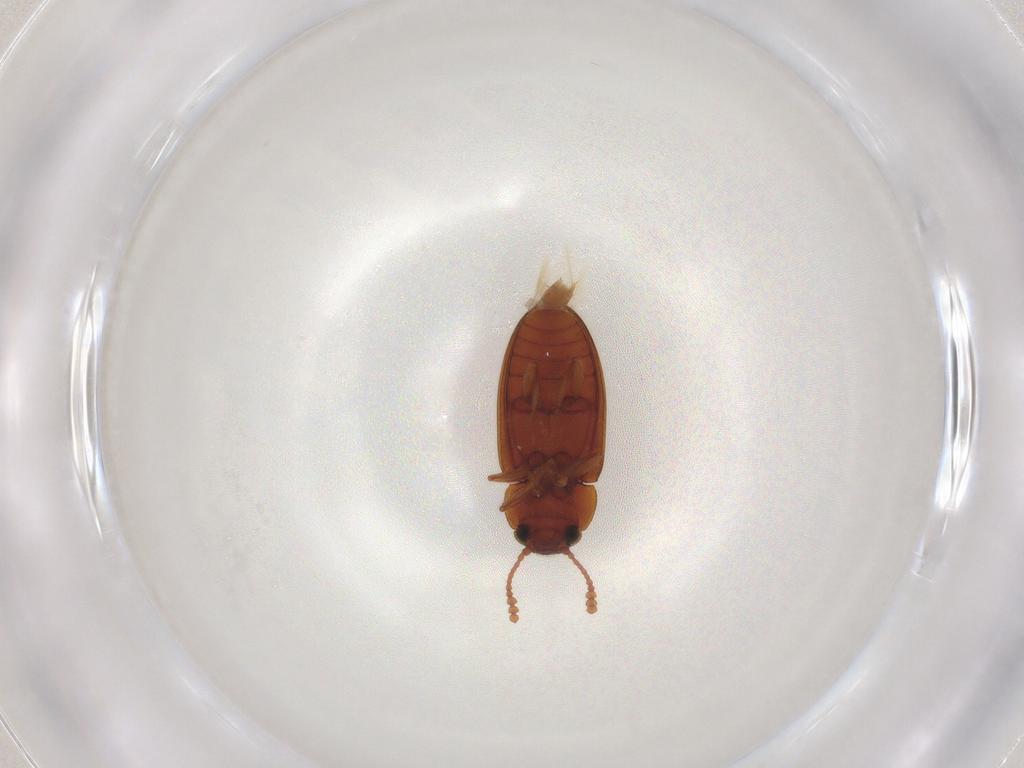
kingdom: Animalia
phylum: Arthropoda
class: Insecta
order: Coleoptera
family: Erotylidae
